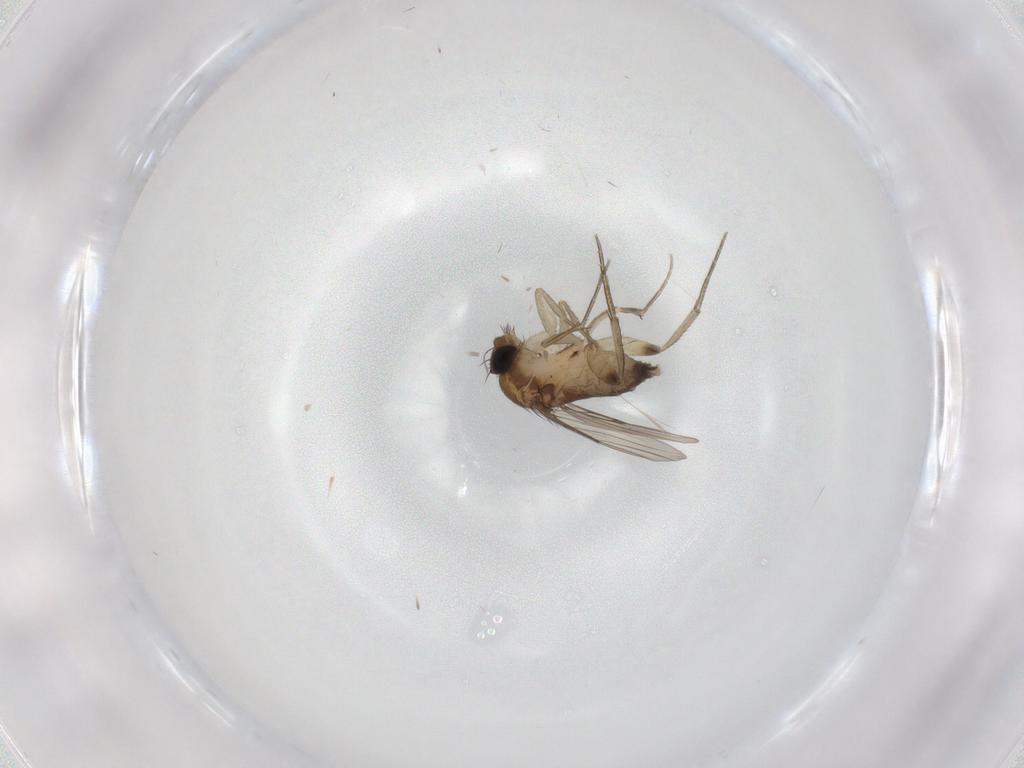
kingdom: Animalia
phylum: Arthropoda
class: Insecta
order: Diptera
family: Phoridae
